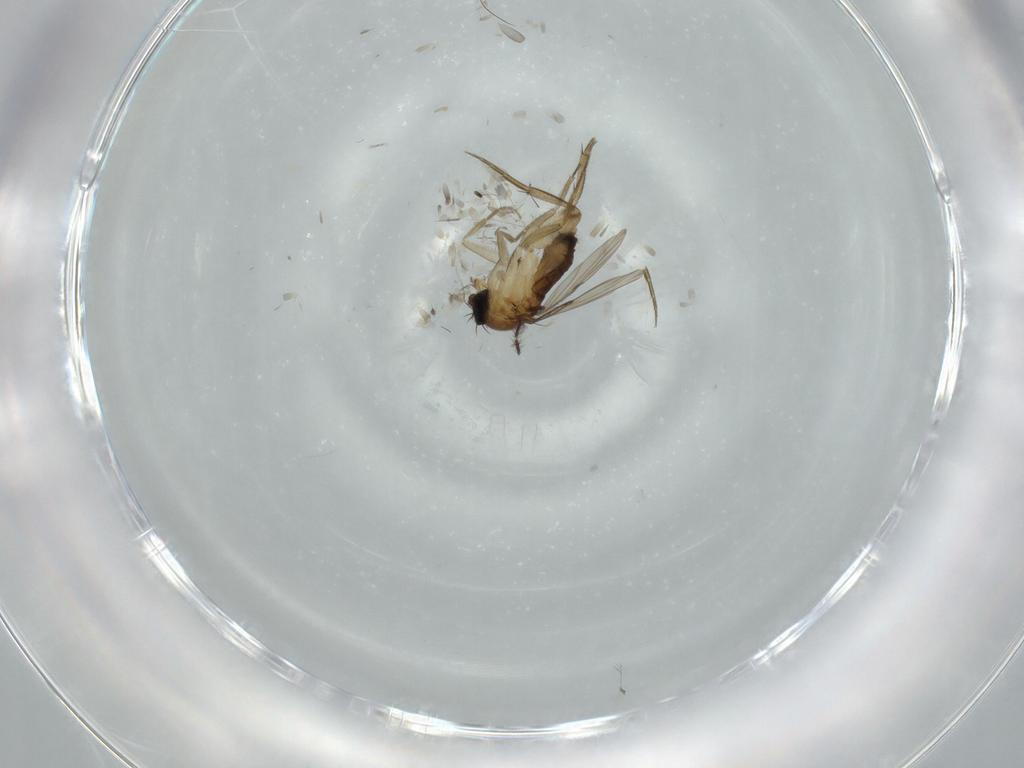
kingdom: Animalia
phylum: Arthropoda
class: Insecta
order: Diptera
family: Phoridae
